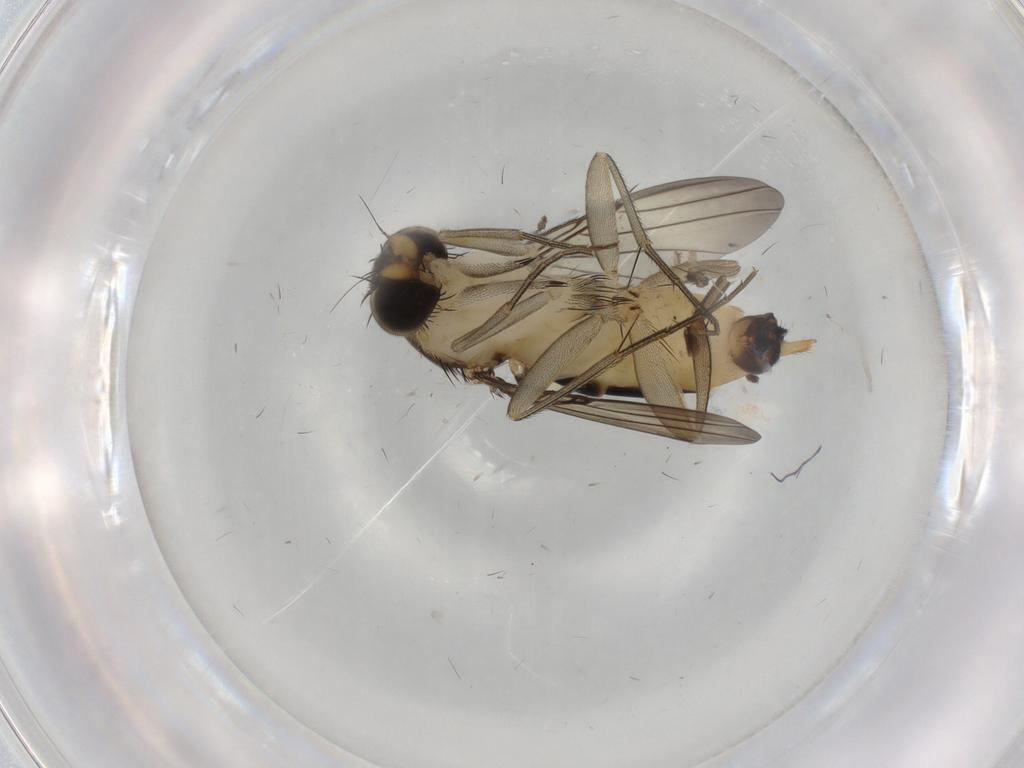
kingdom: Animalia
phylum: Arthropoda
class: Insecta
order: Diptera
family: Phoridae
